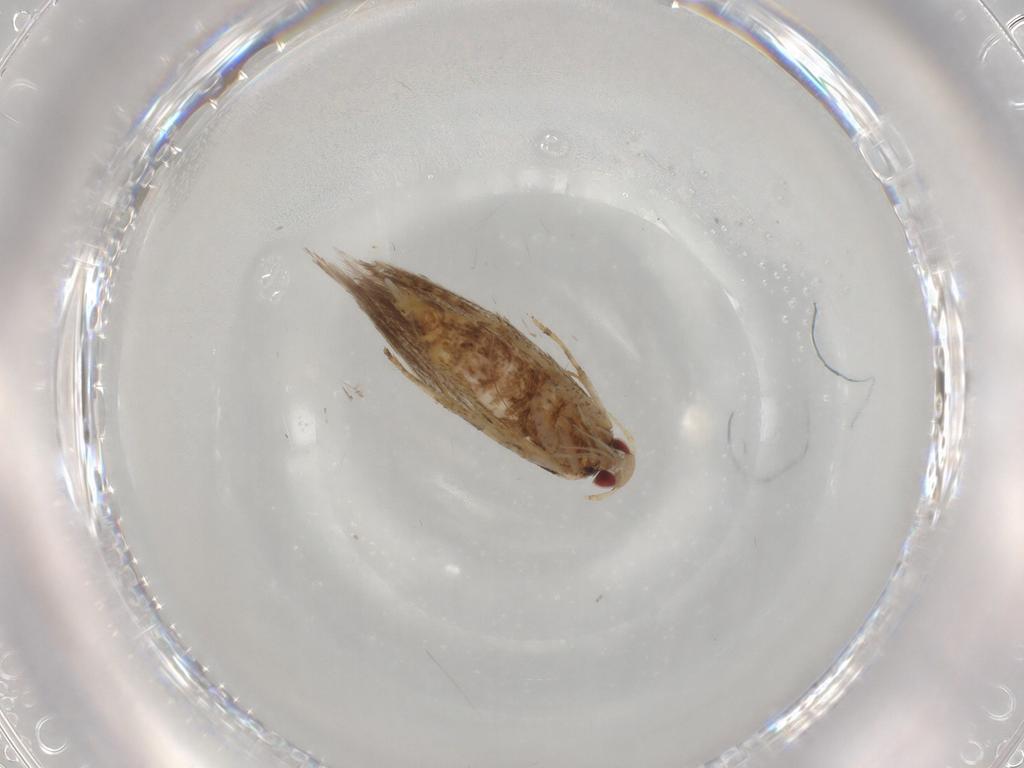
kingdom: Animalia
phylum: Arthropoda
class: Insecta
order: Lepidoptera
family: Cosmopterigidae
